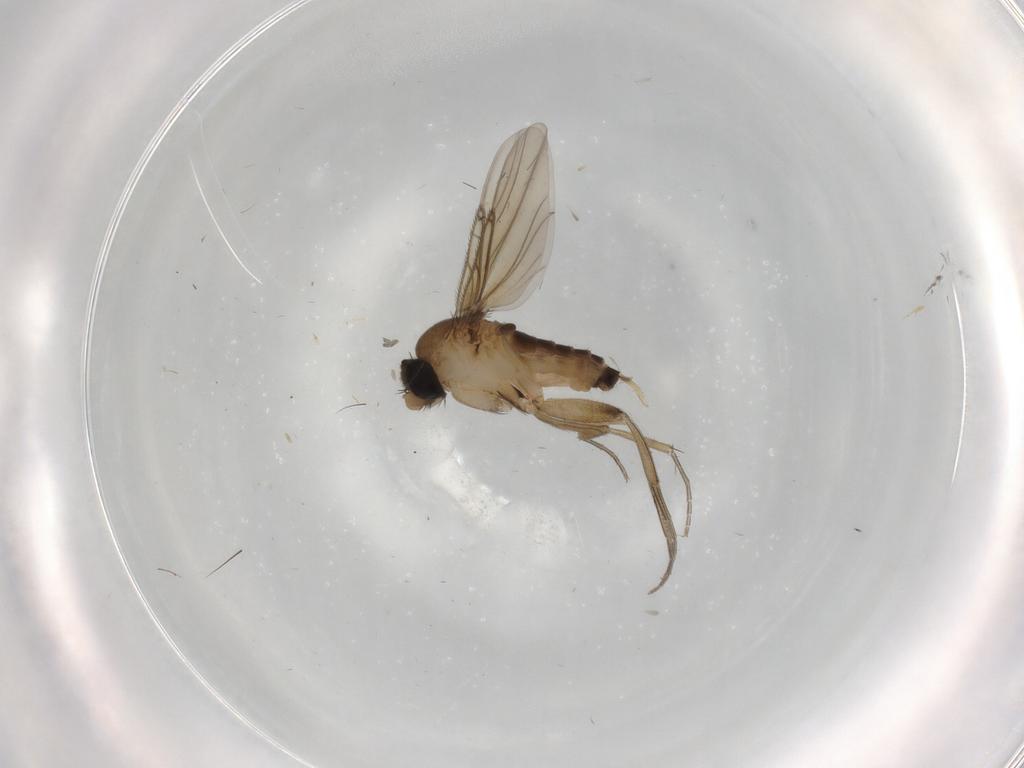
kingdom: Animalia
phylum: Arthropoda
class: Insecta
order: Diptera
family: Phoridae
